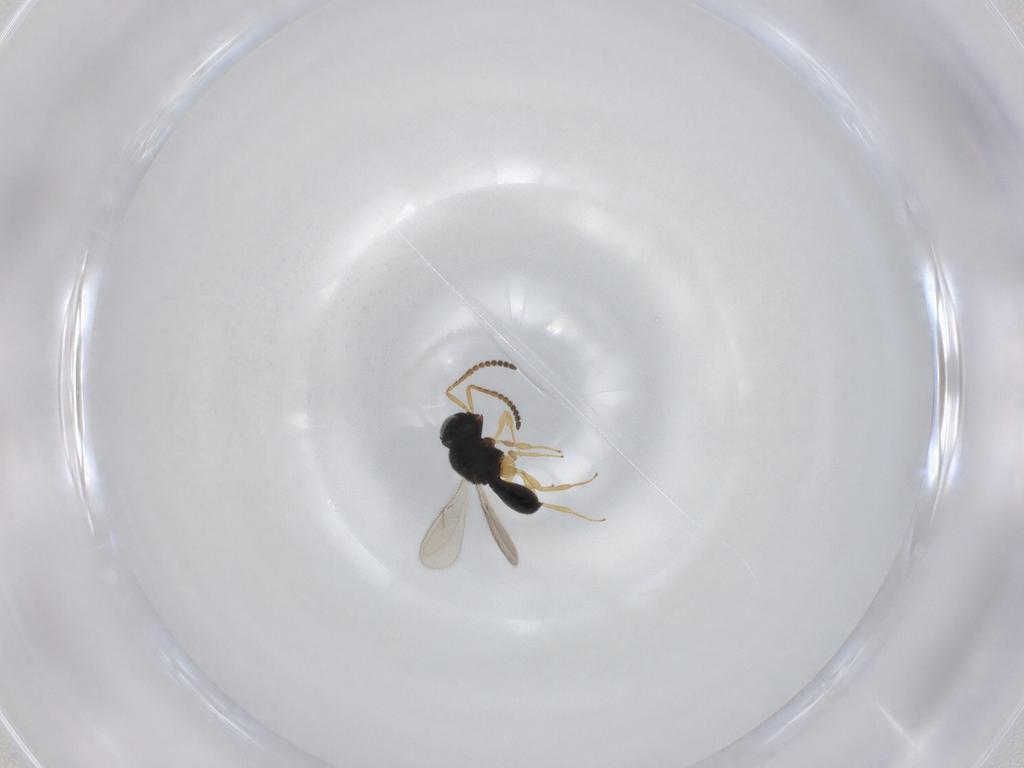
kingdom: Animalia
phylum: Arthropoda
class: Insecta
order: Hymenoptera
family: Scelionidae
